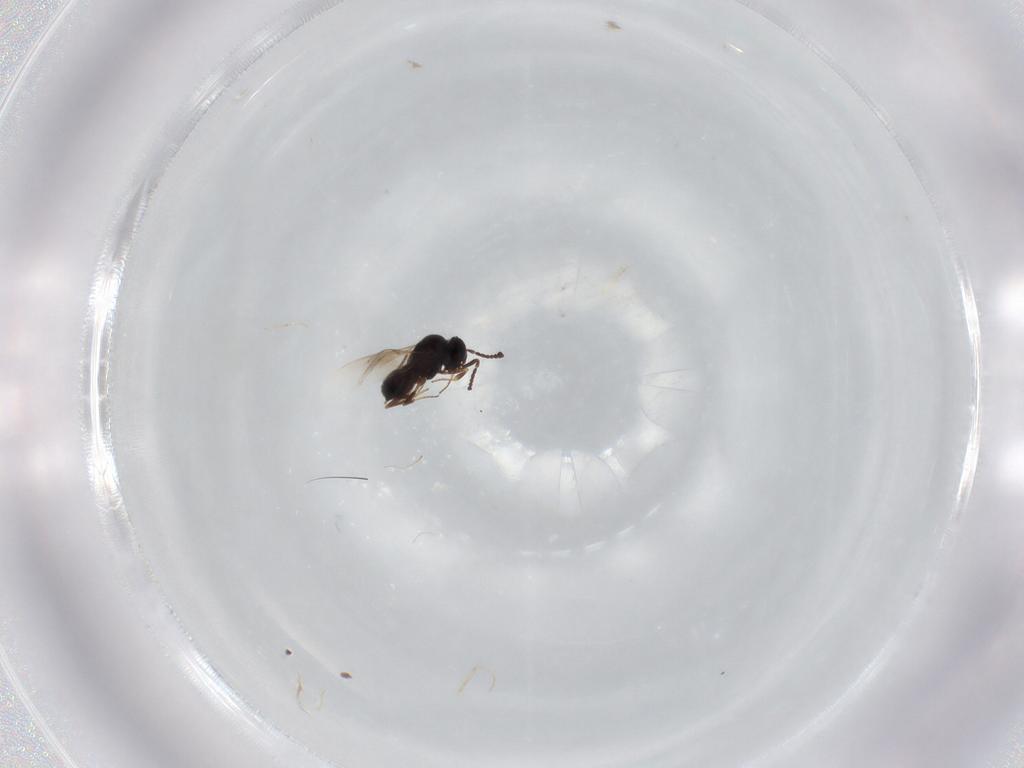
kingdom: Animalia
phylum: Arthropoda
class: Insecta
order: Hymenoptera
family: Scelionidae
